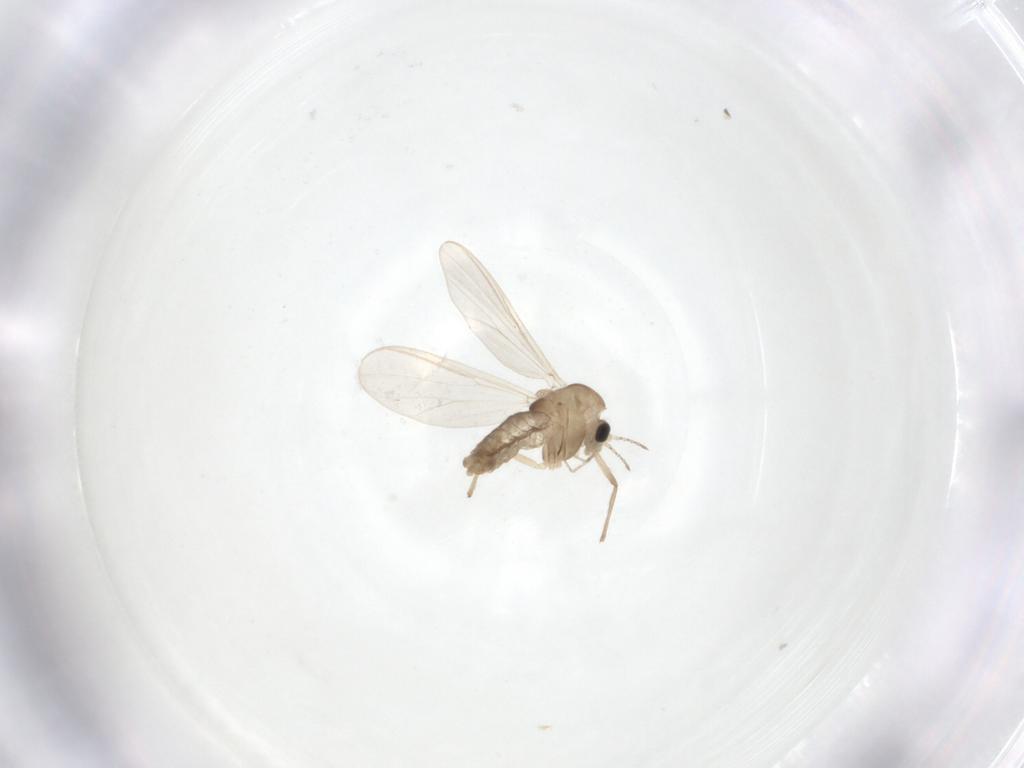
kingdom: Animalia
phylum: Arthropoda
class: Insecta
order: Diptera
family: Chironomidae
